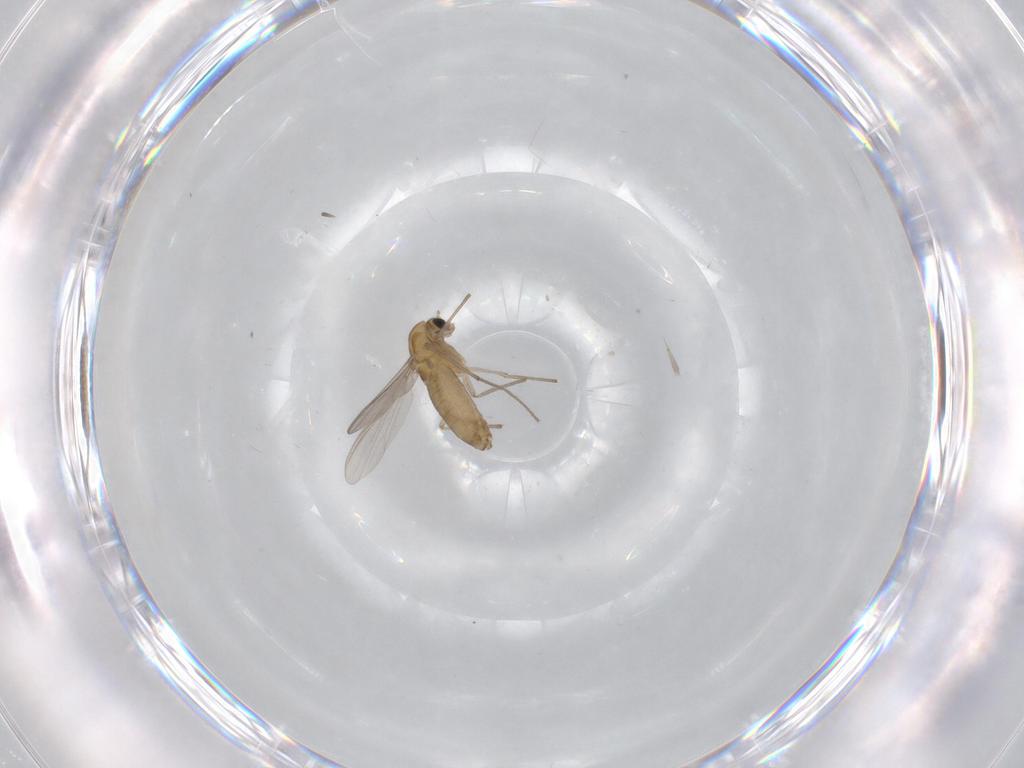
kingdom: Animalia
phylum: Arthropoda
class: Insecta
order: Diptera
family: Chironomidae
